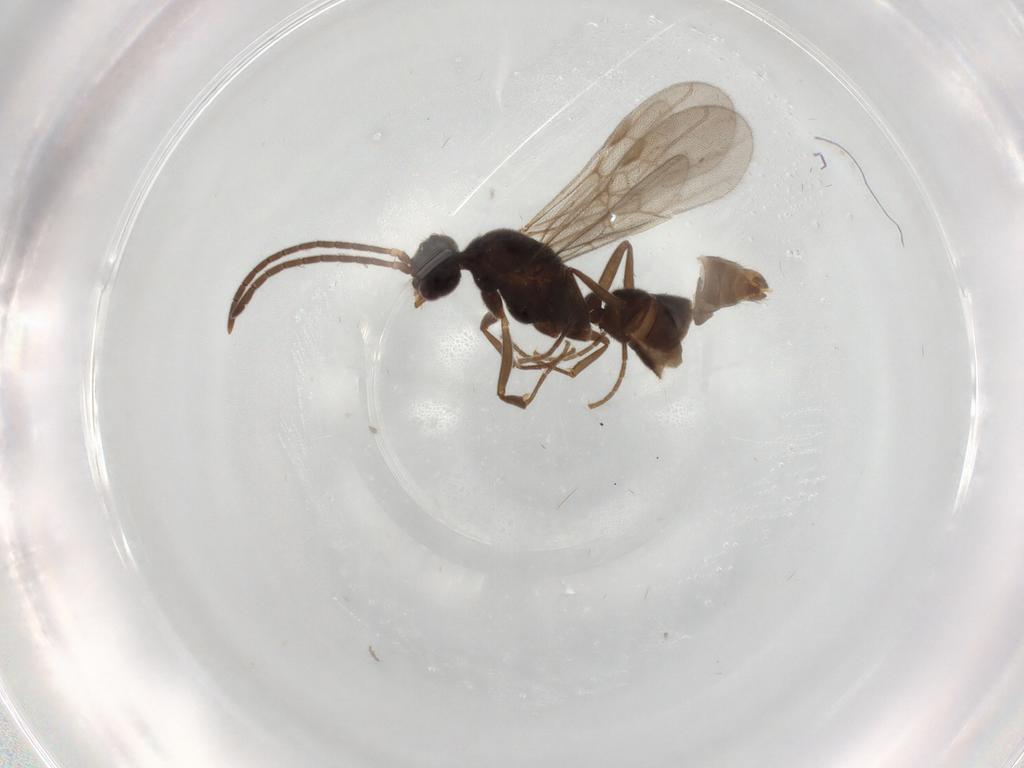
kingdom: Animalia
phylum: Arthropoda
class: Insecta
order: Hymenoptera
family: Formicidae
